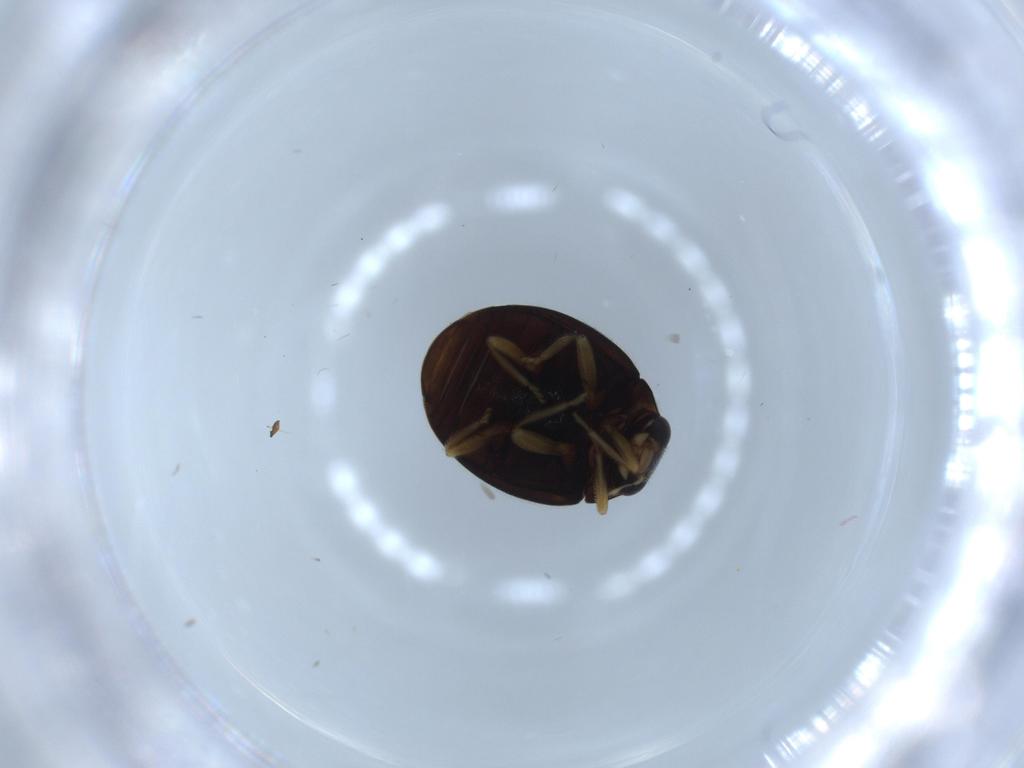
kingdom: Animalia
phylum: Arthropoda
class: Insecta
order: Coleoptera
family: Coccinellidae
